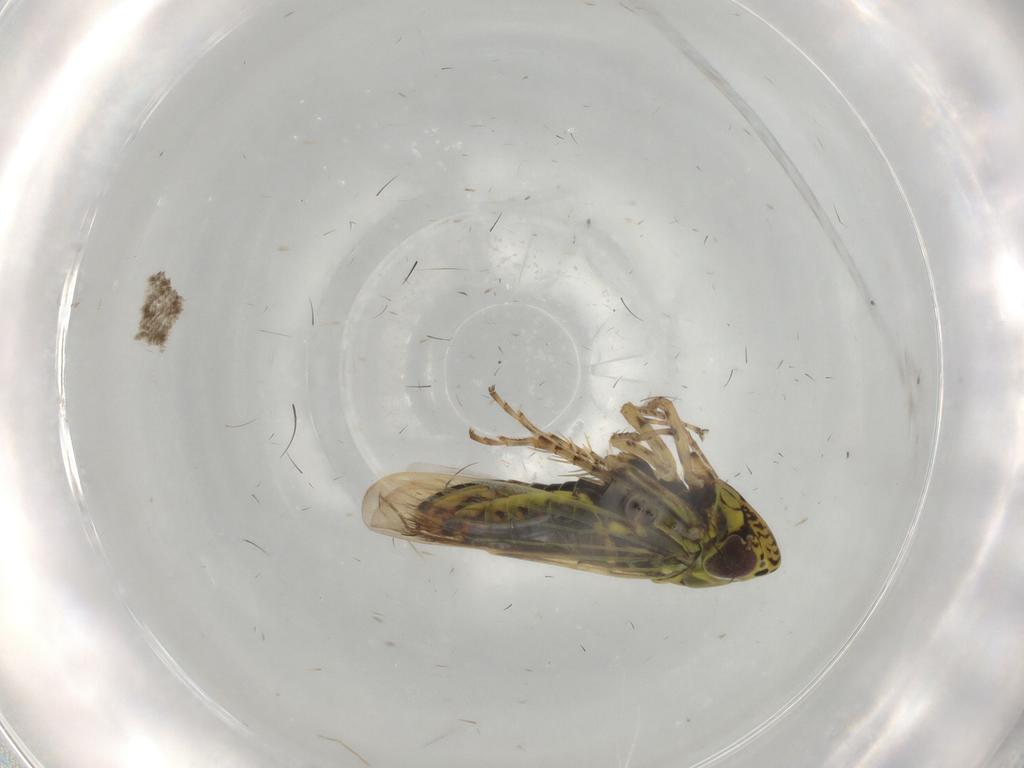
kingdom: Animalia
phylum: Arthropoda
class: Insecta
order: Hemiptera
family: Cicadellidae
